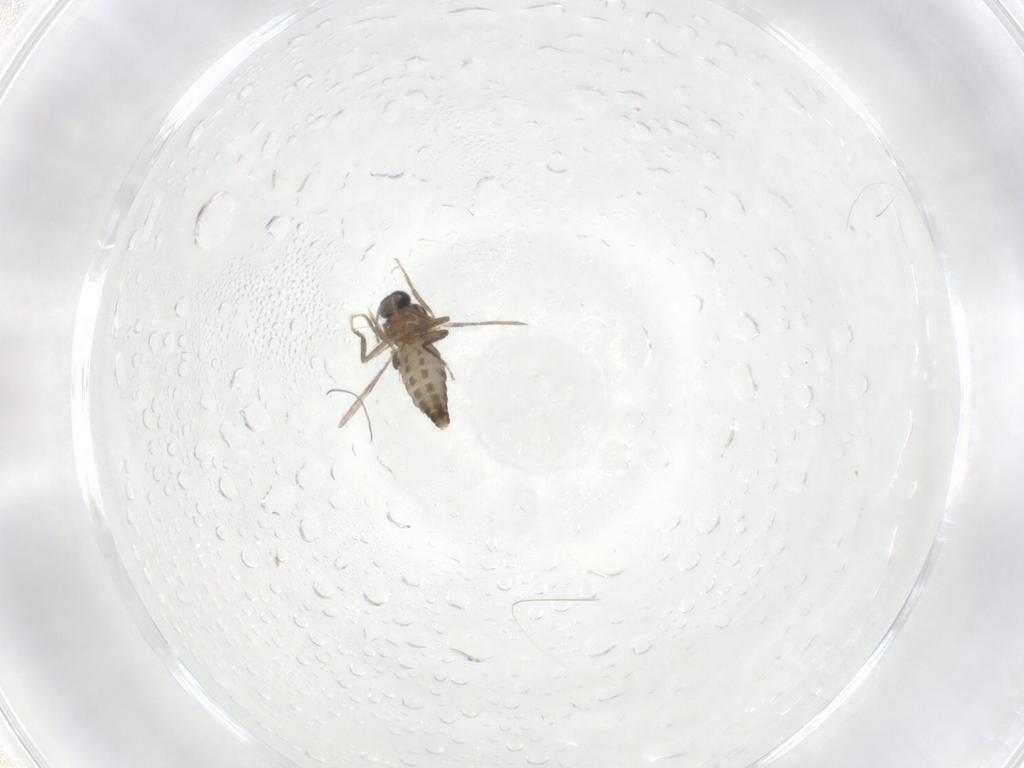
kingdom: Animalia
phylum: Arthropoda
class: Insecta
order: Diptera
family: Ceratopogonidae
